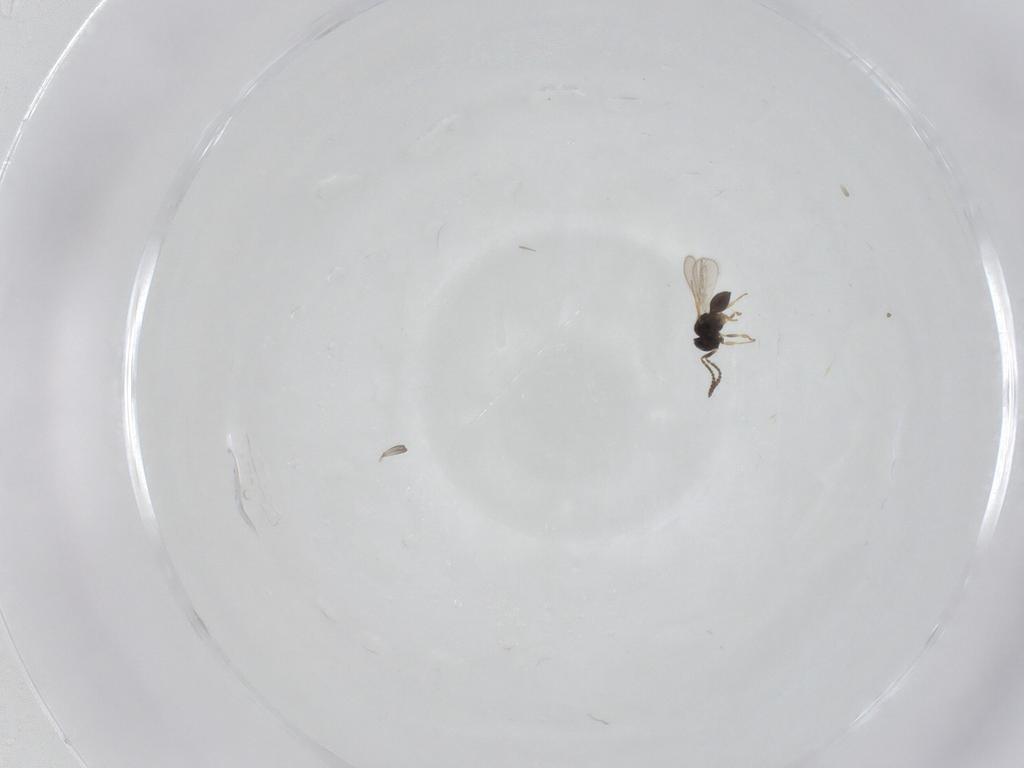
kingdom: Animalia
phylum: Arthropoda
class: Insecta
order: Hymenoptera
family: Scelionidae
